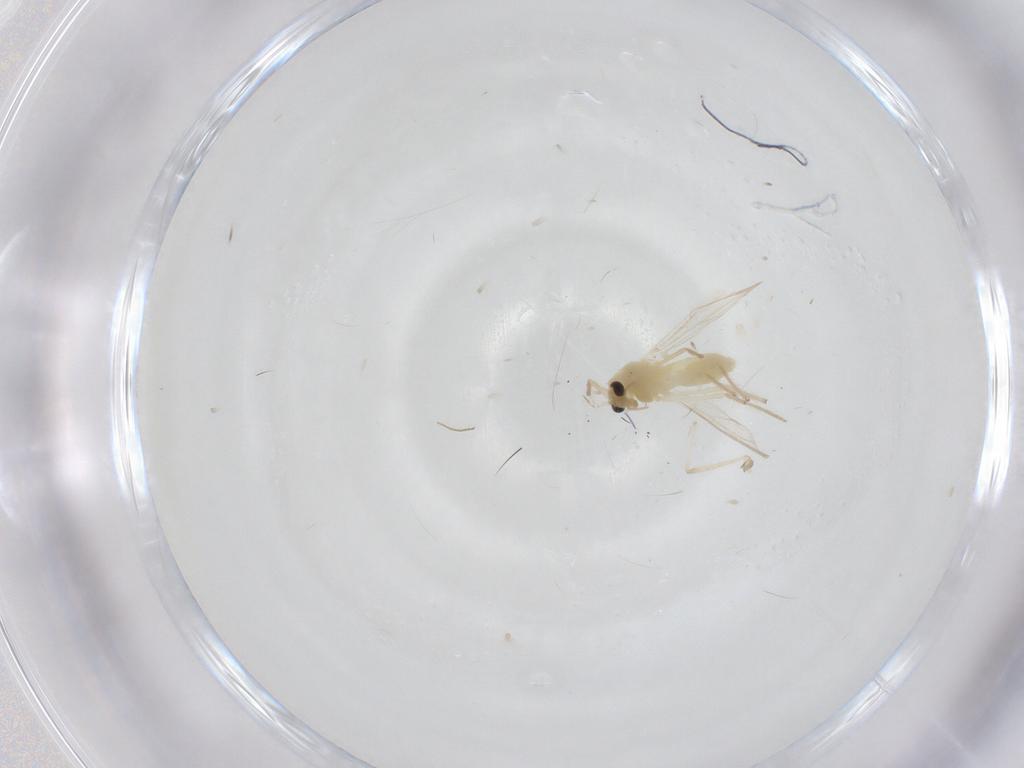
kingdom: Animalia
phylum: Arthropoda
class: Insecta
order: Diptera
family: Chironomidae
